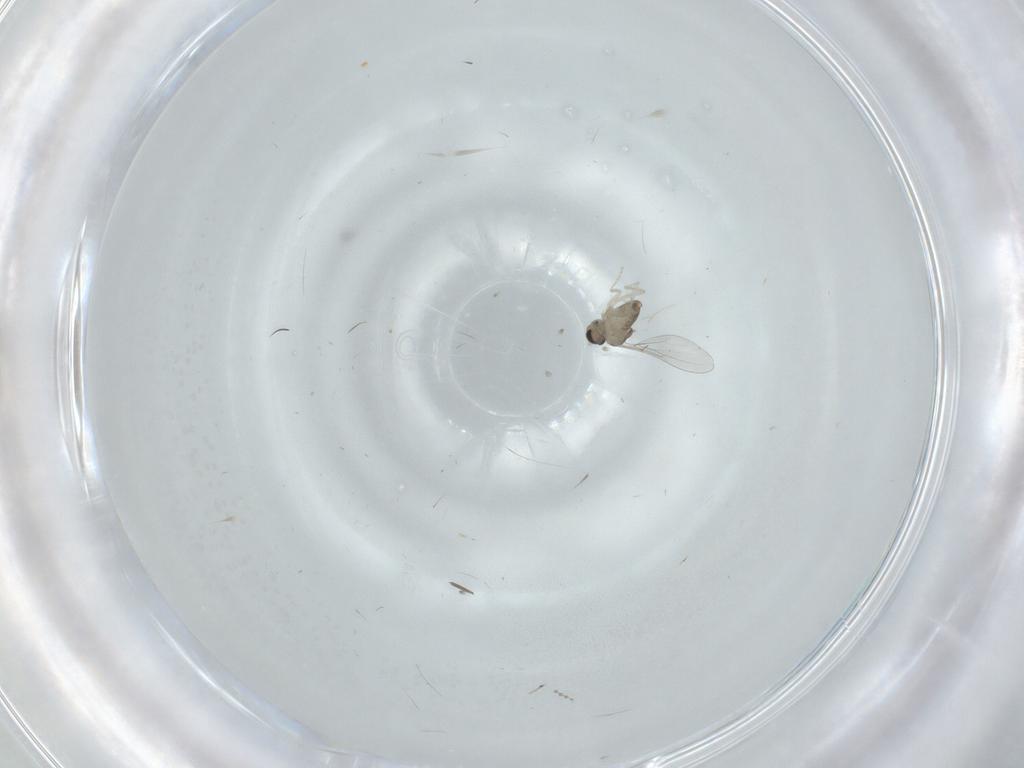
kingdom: Animalia
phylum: Arthropoda
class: Insecta
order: Diptera
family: Cecidomyiidae
